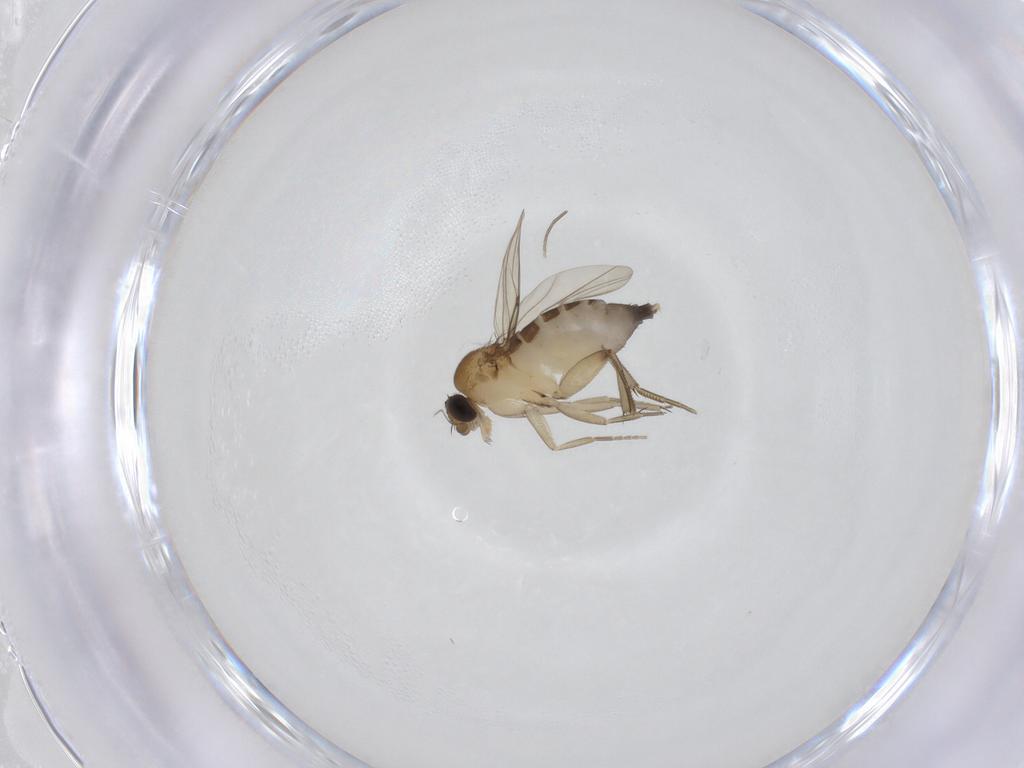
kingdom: Animalia
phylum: Arthropoda
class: Insecta
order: Diptera
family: Phoridae
